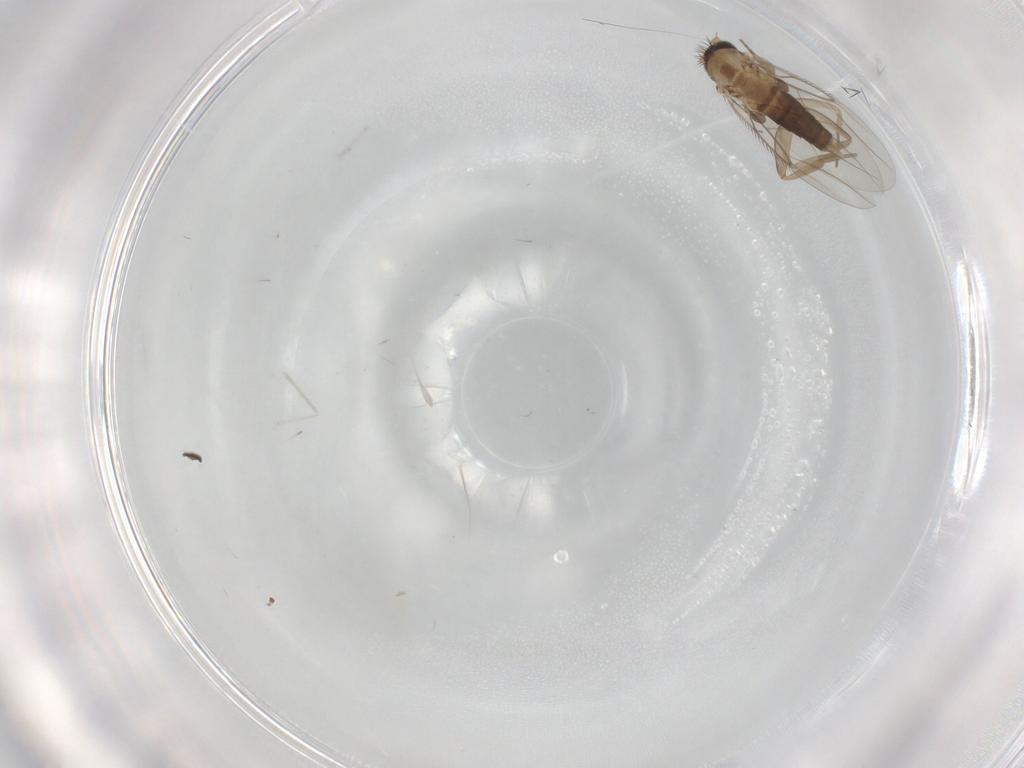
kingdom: Animalia
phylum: Arthropoda
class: Insecta
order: Diptera
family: Phoridae
